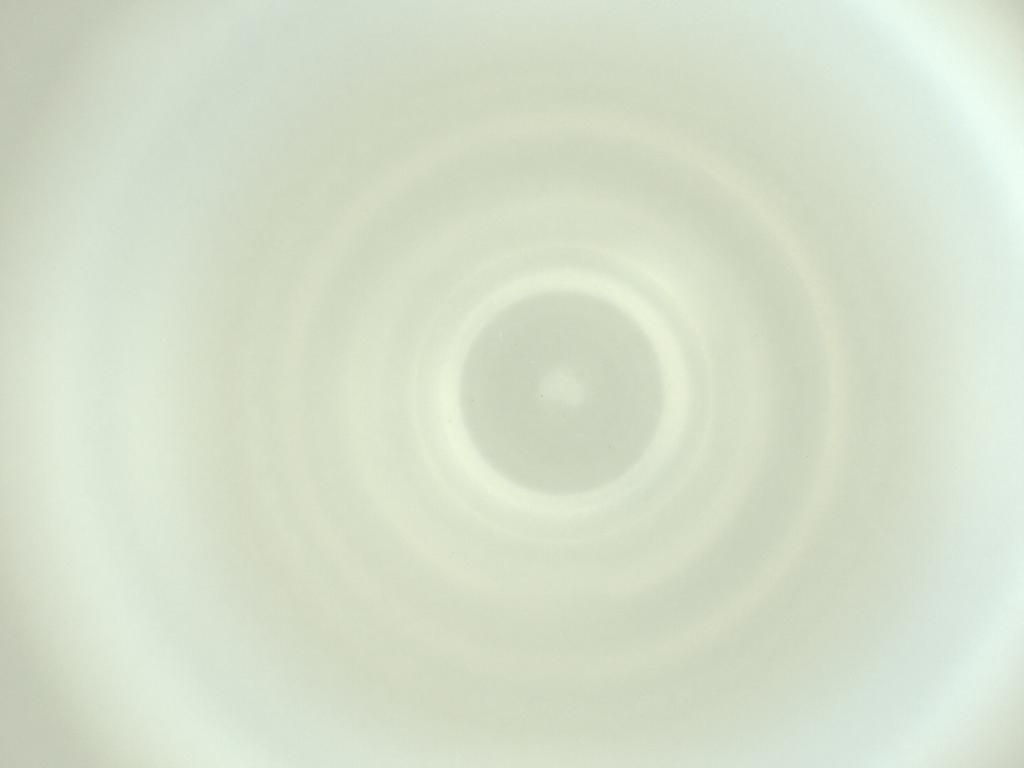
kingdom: Animalia
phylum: Arthropoda
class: Insecta
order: Diptera
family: Cecidomyiidae
